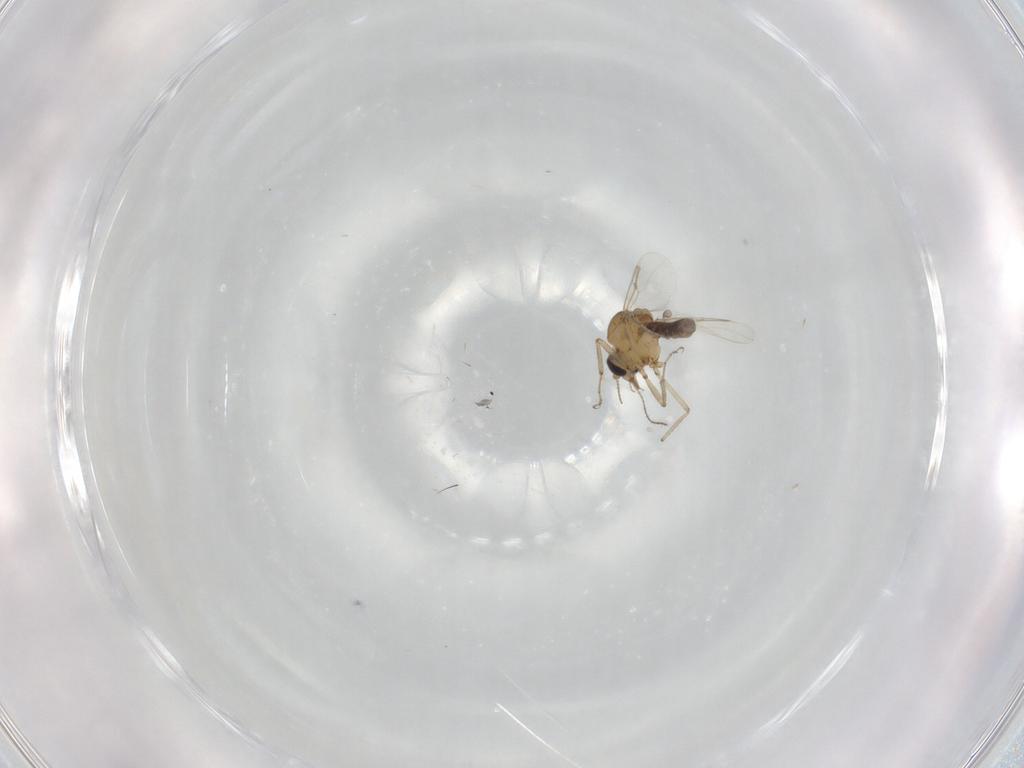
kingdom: Animalia
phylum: Arthropoda
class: Insecta
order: Diptera
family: Ceratopogonidae
